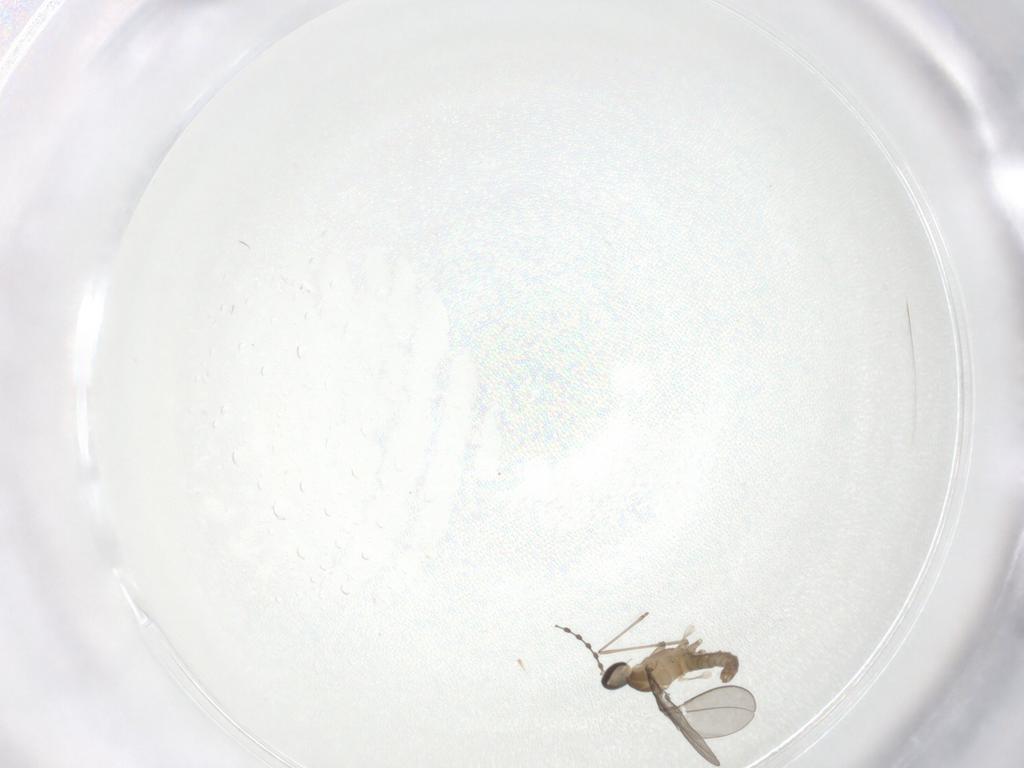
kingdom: Animalia
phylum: Arthropoda
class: Insecta
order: Diptera
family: Cecidomyiidae
